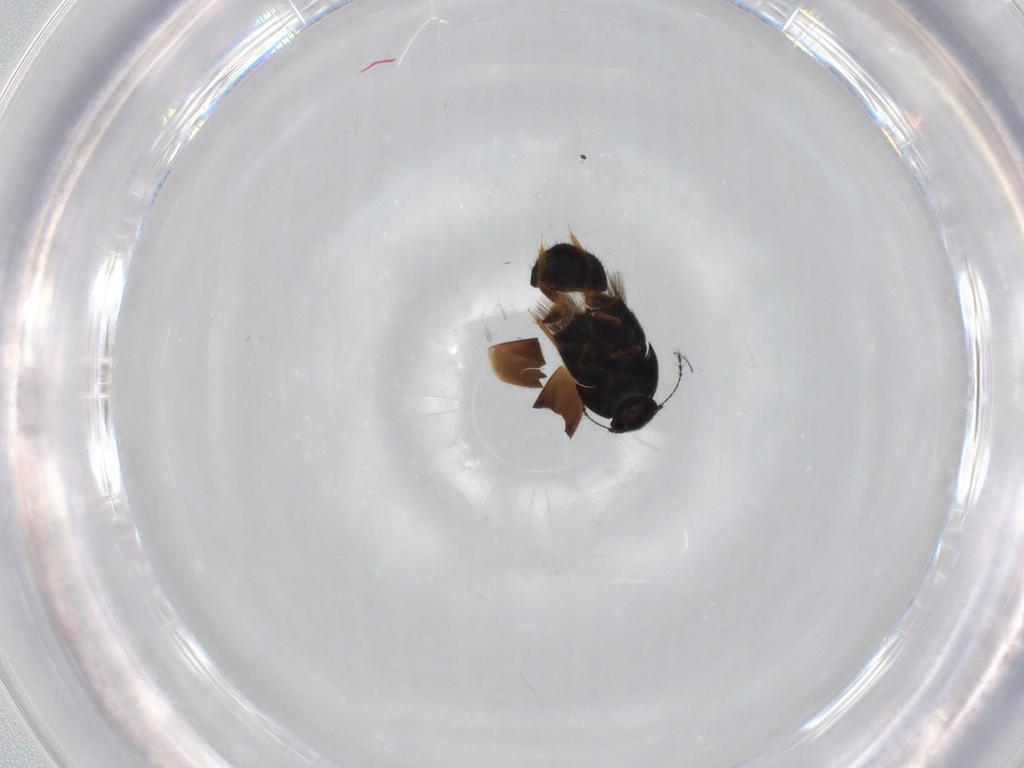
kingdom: Animalia
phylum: Arthropoda
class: Insecta
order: Coleoptera
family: Ptiliidae
